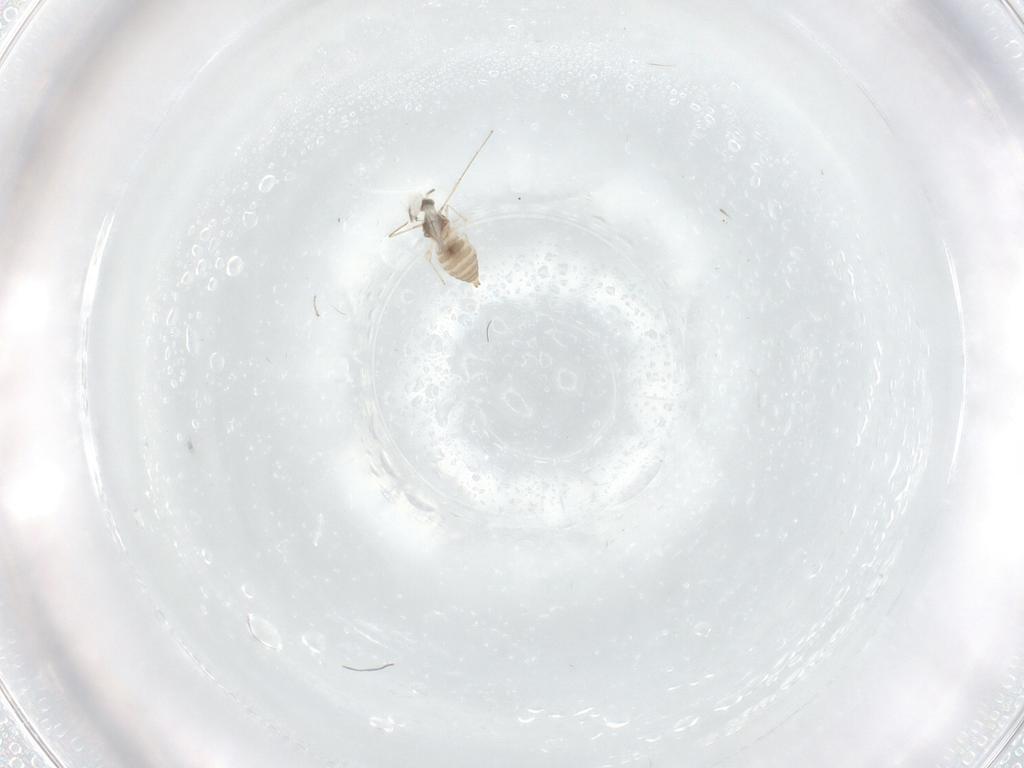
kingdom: Animalia
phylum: Arthropoda
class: Insecta
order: Diptera
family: Cecidomyiidae
